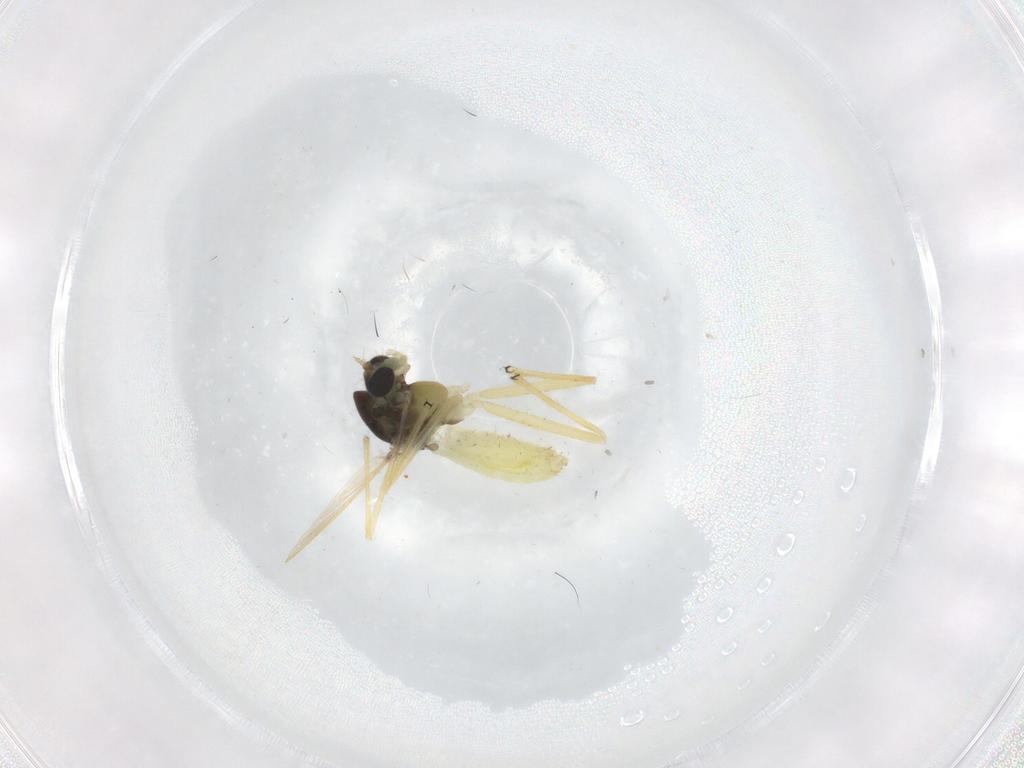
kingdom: Animalia
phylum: Arthropoda
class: Insecta
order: Diptera
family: Chironomidae
